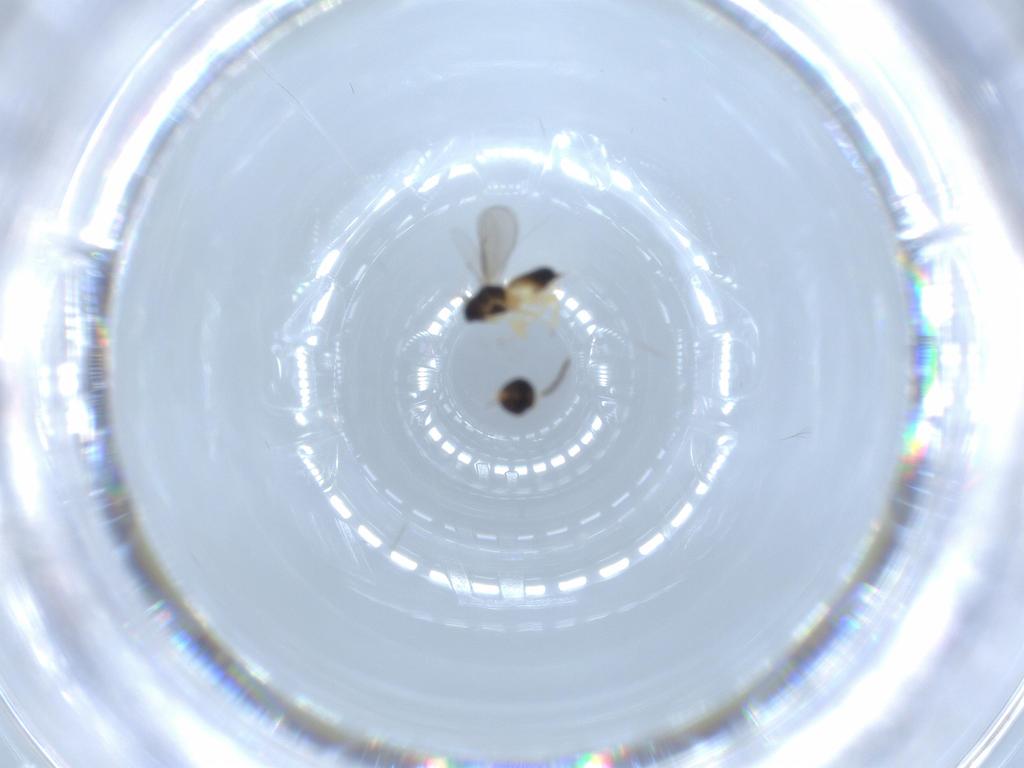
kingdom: Animalia
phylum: Arthropoda
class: Insecta
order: Hymenoptera
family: Eulophidae
